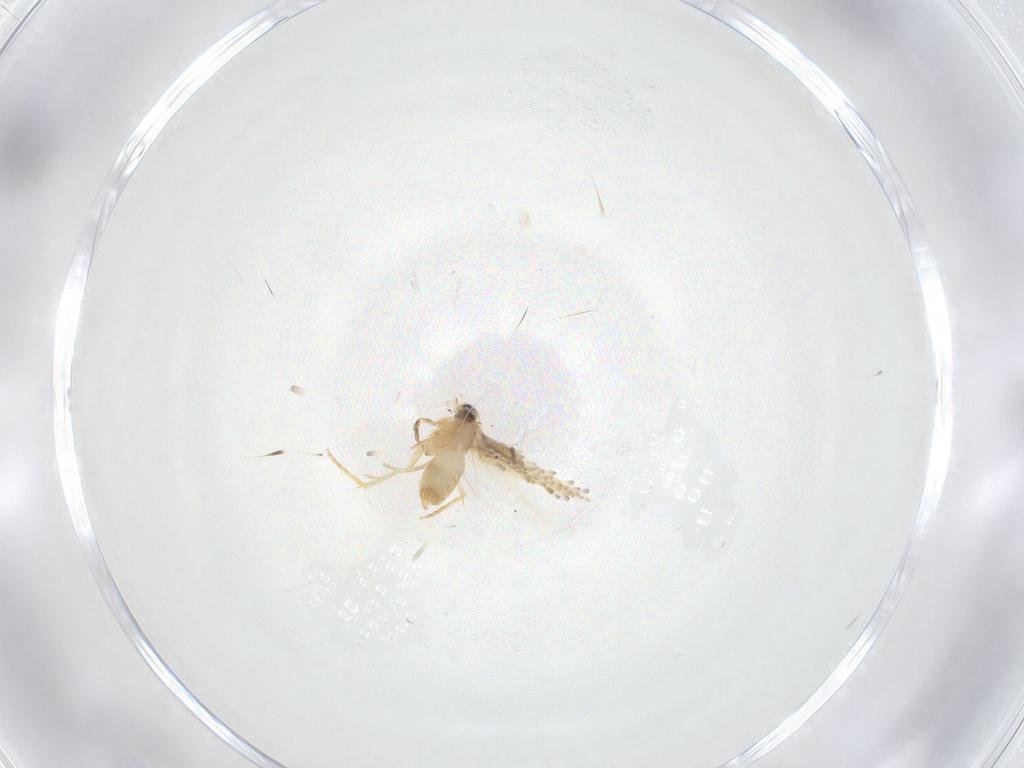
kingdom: Animalia
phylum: Arthropoda
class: Insecta
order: Lepidoptera
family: Nepticulidae
